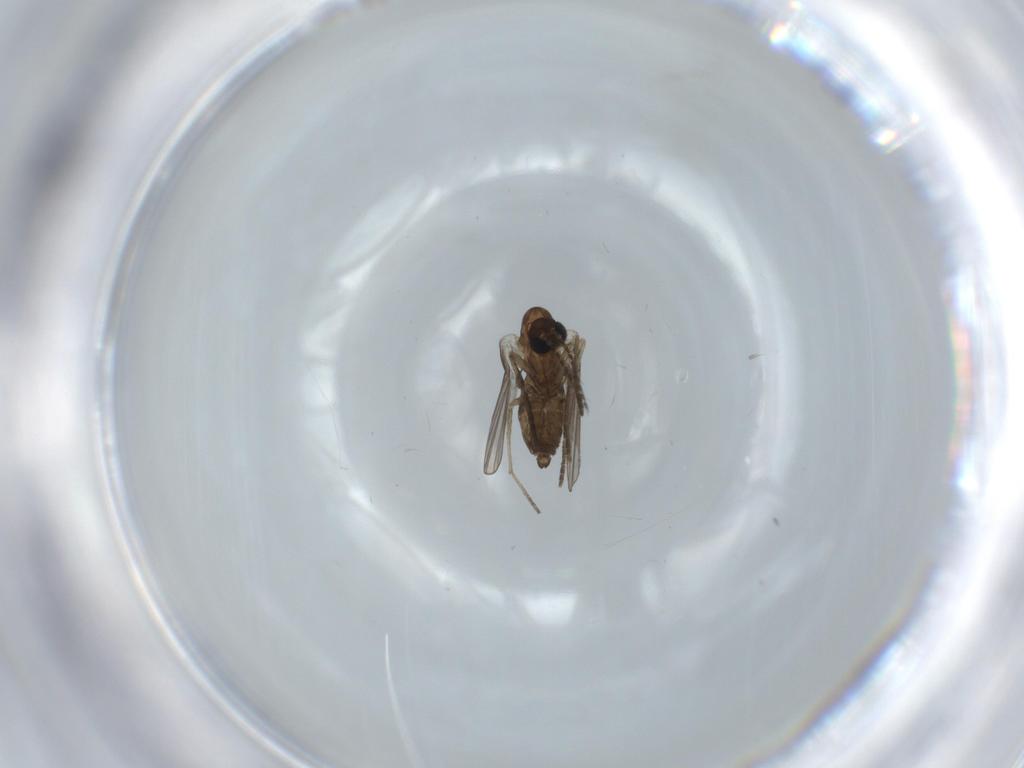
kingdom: Animalia
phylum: Arthropoda
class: Insecta
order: Diptera
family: Psychodidae
